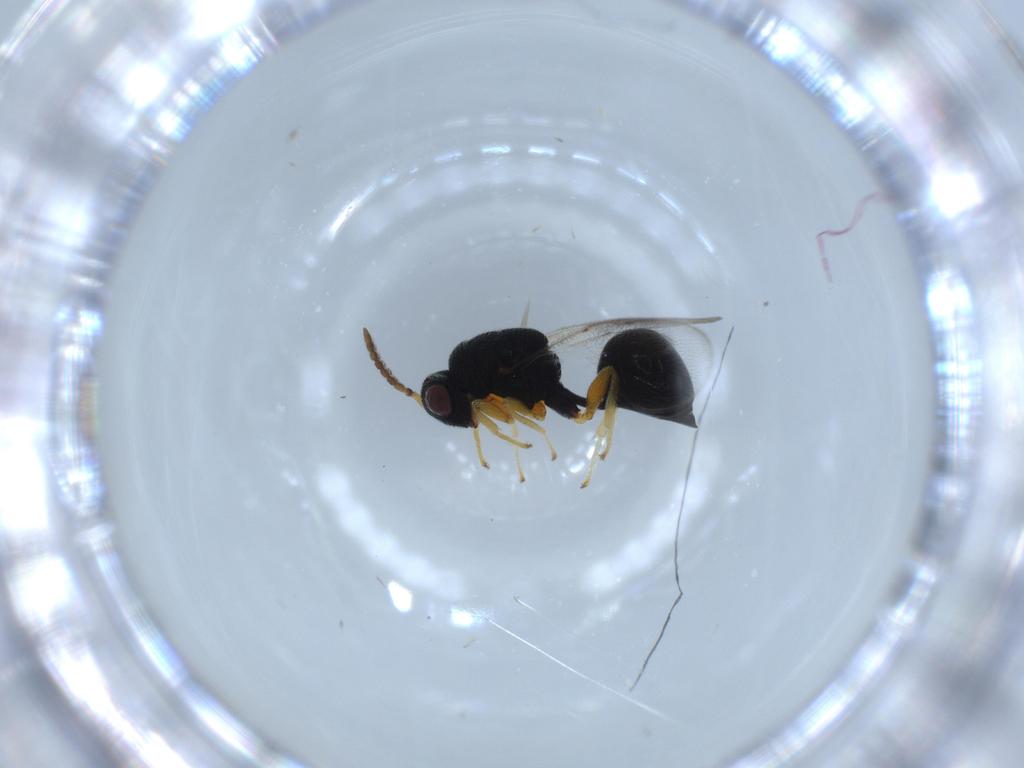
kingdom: Animalia
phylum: Arthropoda
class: Insecta
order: Hymenoptera
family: Eurytomidae
